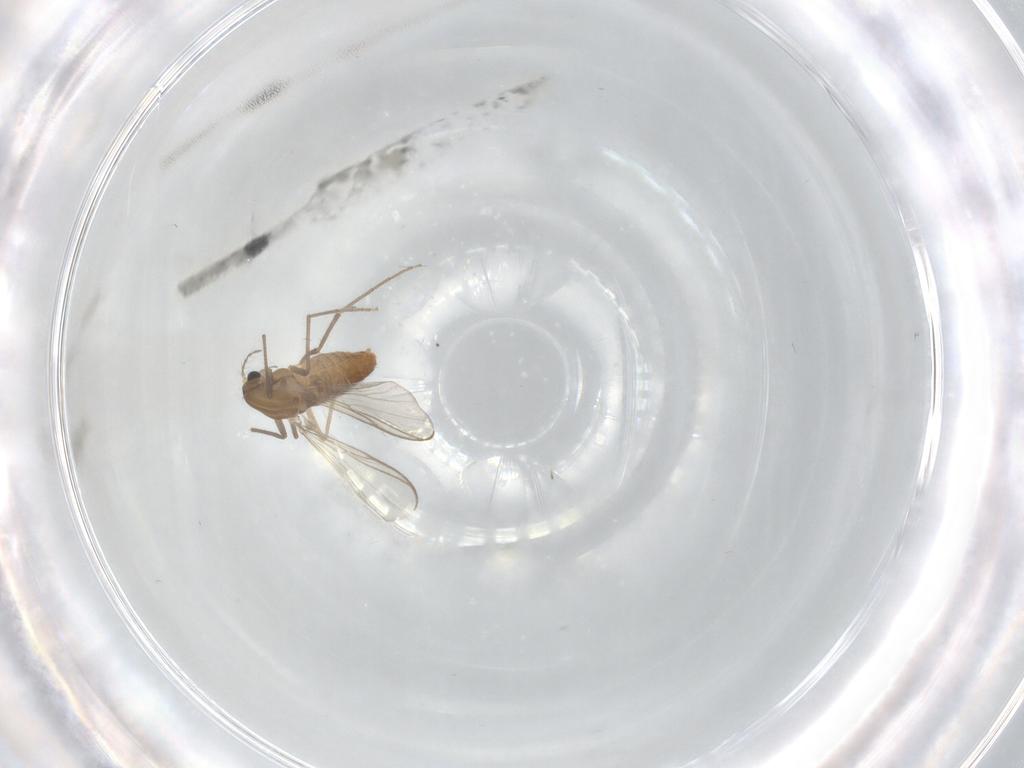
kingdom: Animalia
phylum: Arthropoda
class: Insecta
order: Diptera
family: Chironomidae
